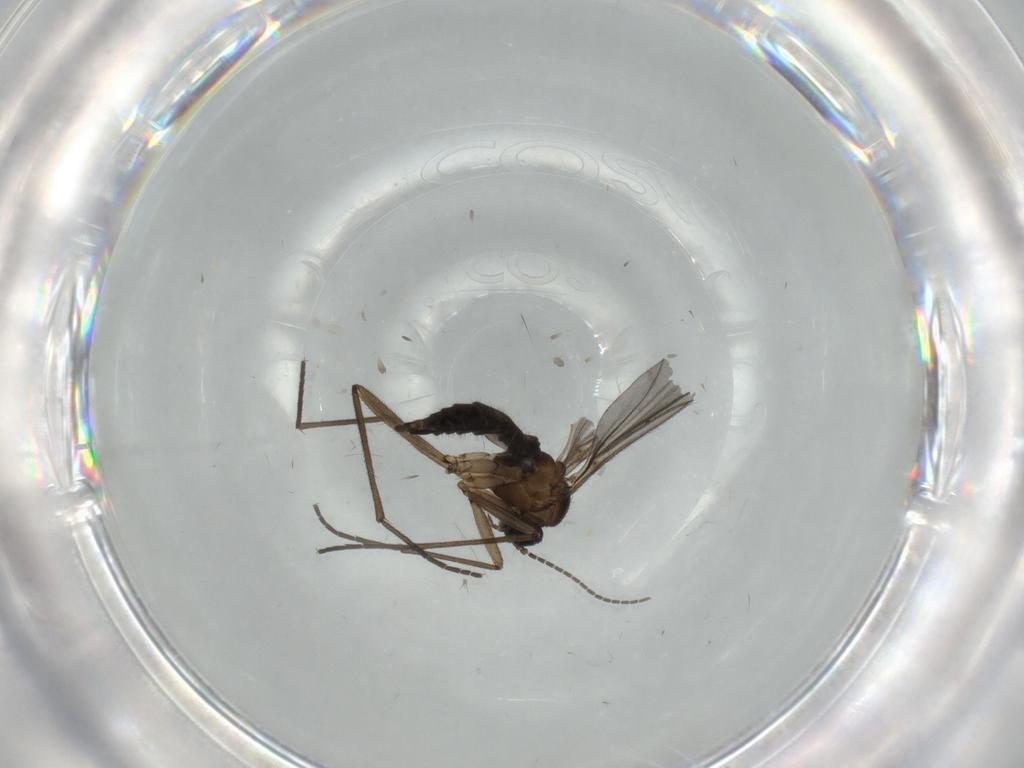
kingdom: Animalia
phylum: Arthropoda
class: Insecta
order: Diptera
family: Sciaridae
